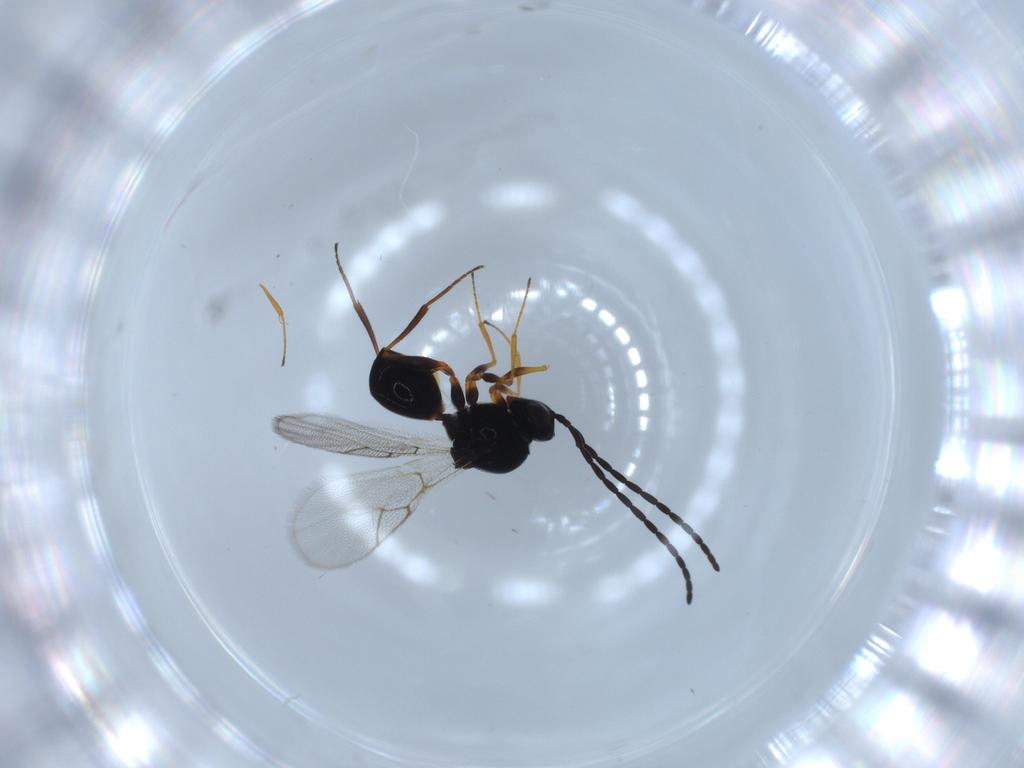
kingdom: Animalia
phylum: Arthropoda
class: Insecta
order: Hymenoptera
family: Figitidae
